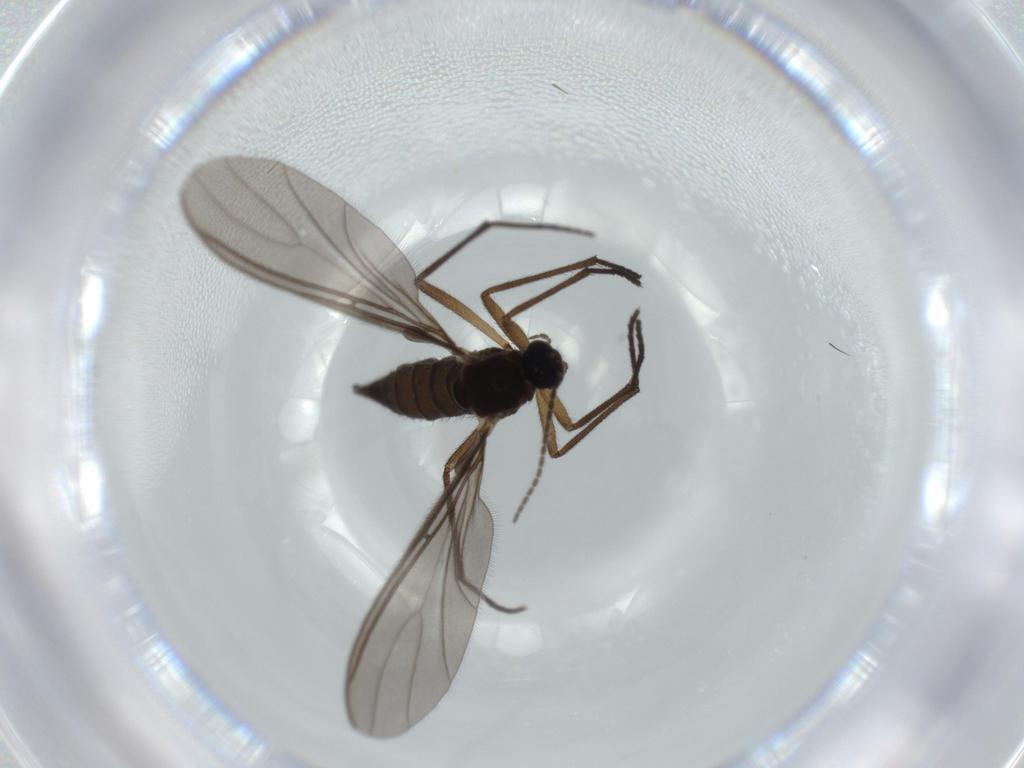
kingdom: Animalia
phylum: Arthropoda
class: Insecta
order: Diptera
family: Sciaridae
